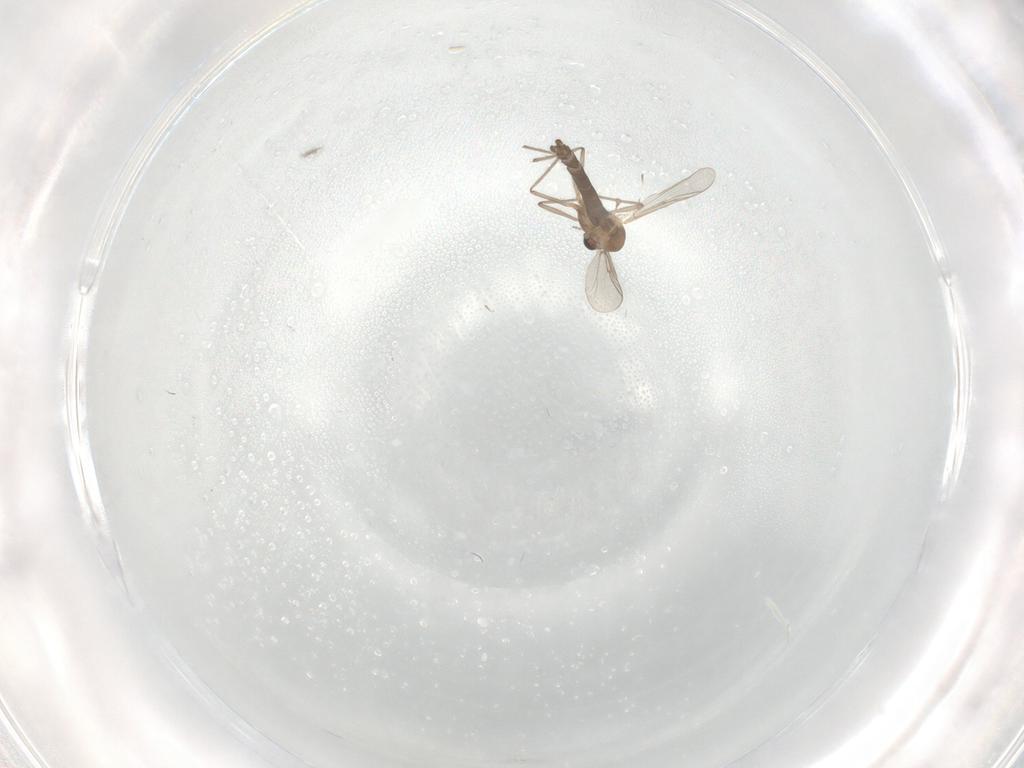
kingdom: Animalia
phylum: Arthropoda
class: Insecta
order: Diptera
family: Chironomidae
